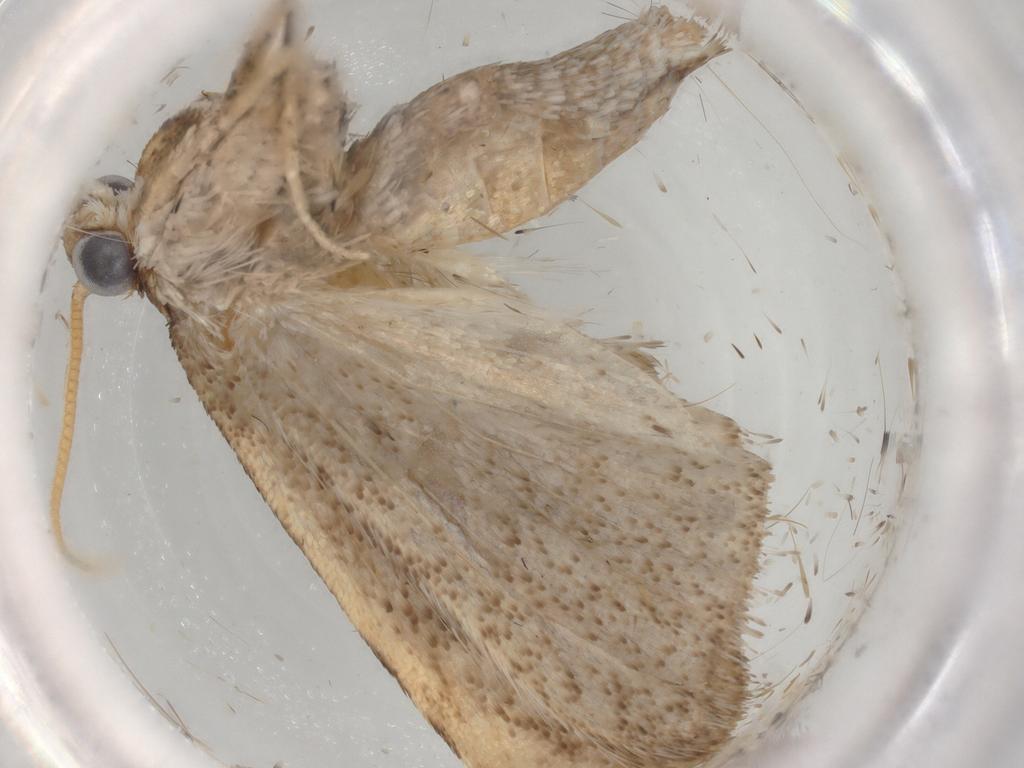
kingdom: Animalia
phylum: Arthropoda
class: Insecta
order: Lepidoptera
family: Crambidae
